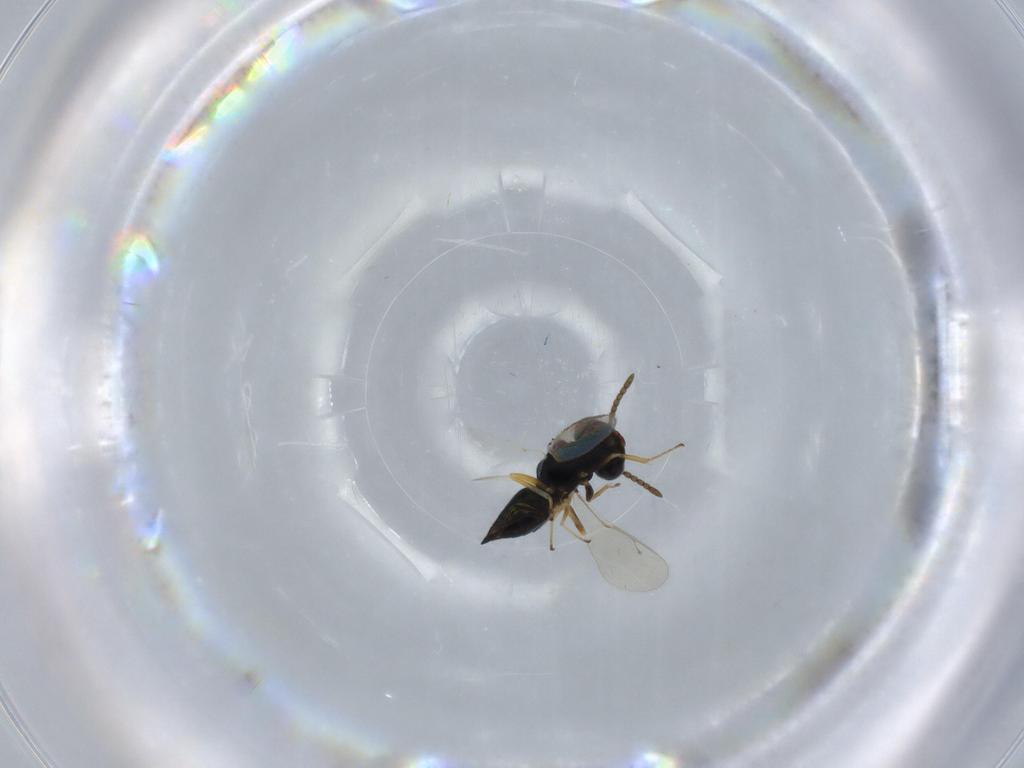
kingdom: Animalia
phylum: Arthropoda
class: Insecta
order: Hymenoptera
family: Pteromalidae
